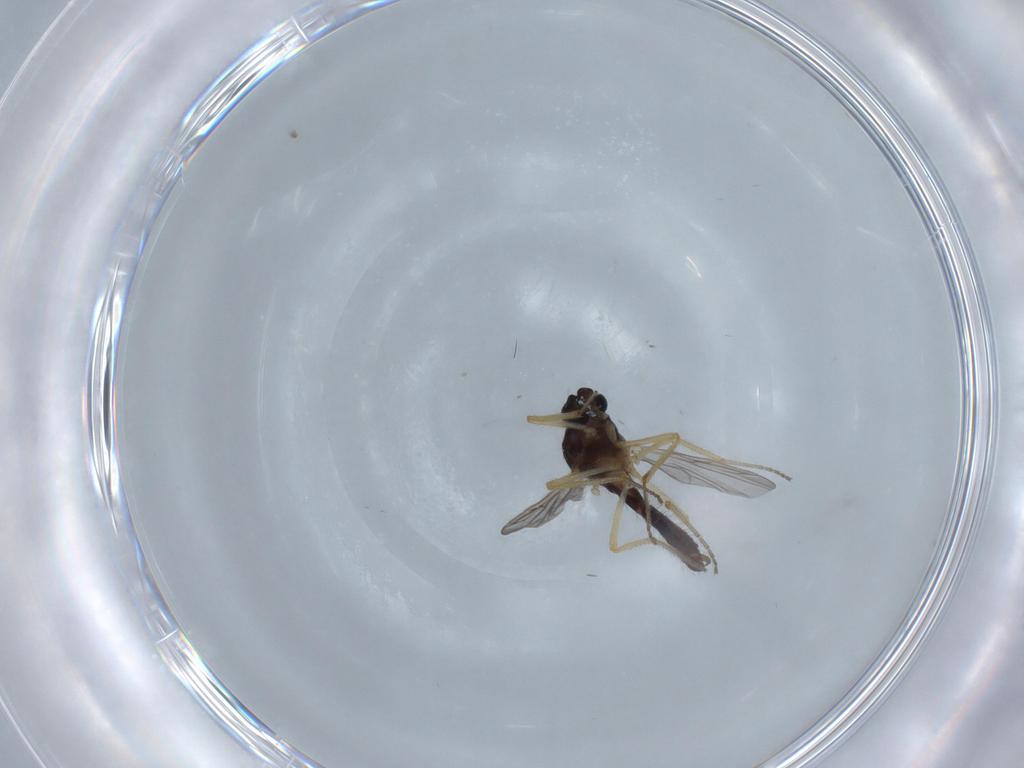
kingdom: Animalia
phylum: Arthropoda
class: Insecta
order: Diptera
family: Ceratopogonidae
